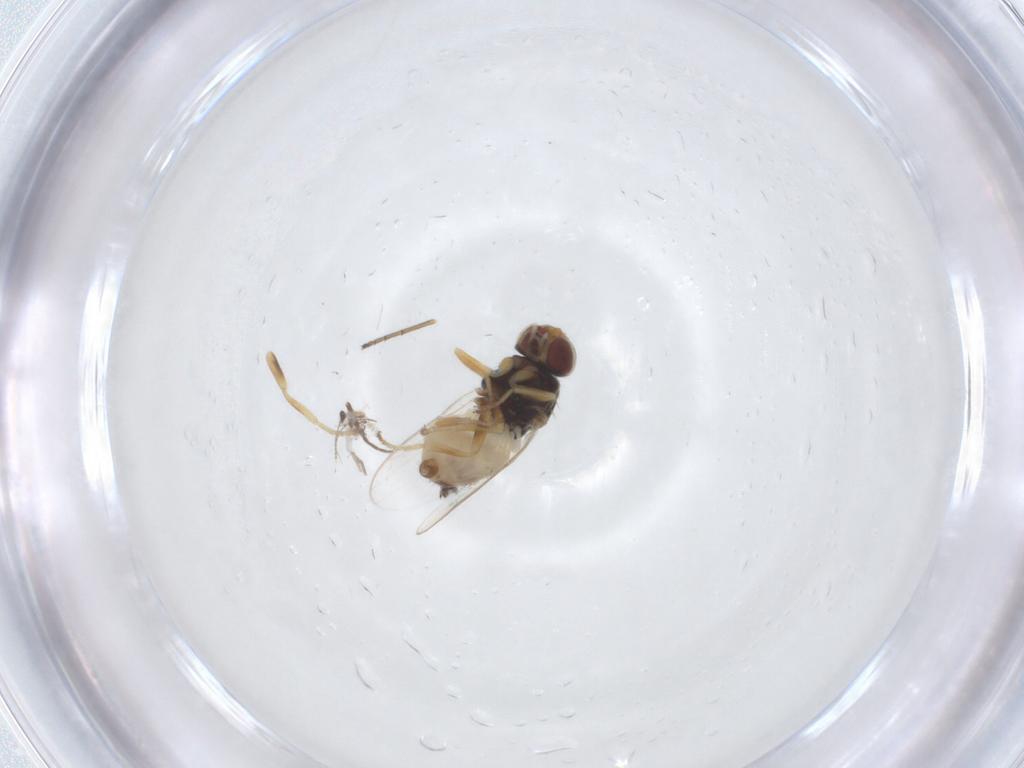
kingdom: Animalia
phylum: Arthropoda
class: Insecta
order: Diptera
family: Chloropidae
